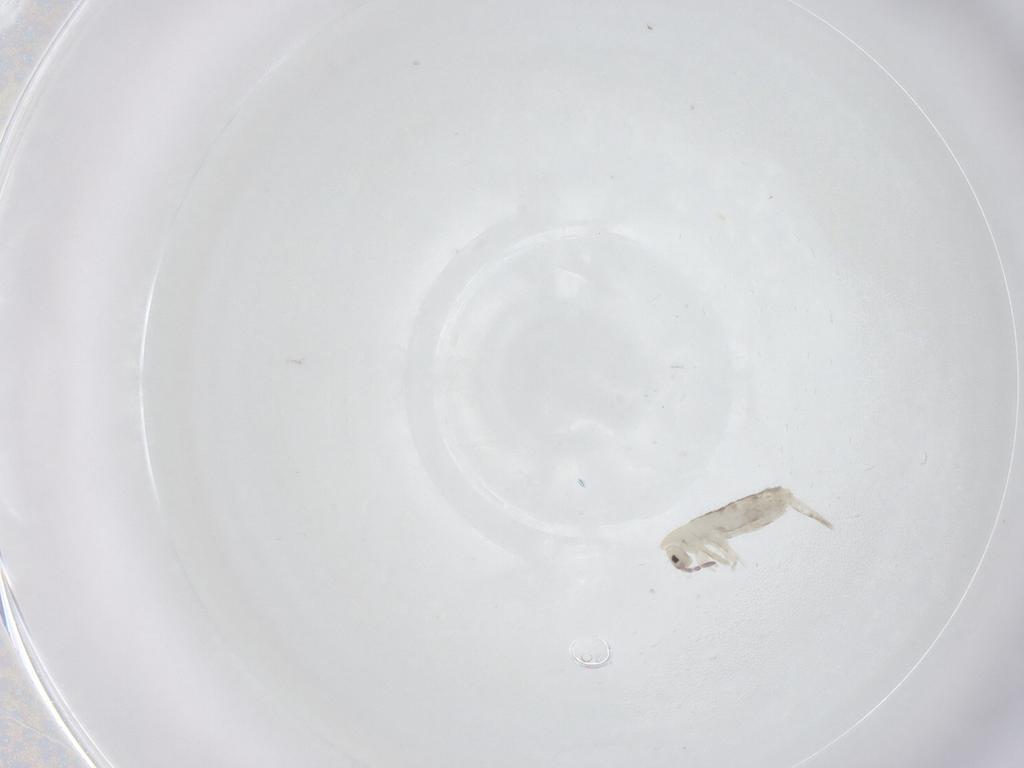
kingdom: Animalia
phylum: Arthropoda
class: Collembola
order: Entomobryomorpha
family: Entomobryidae
